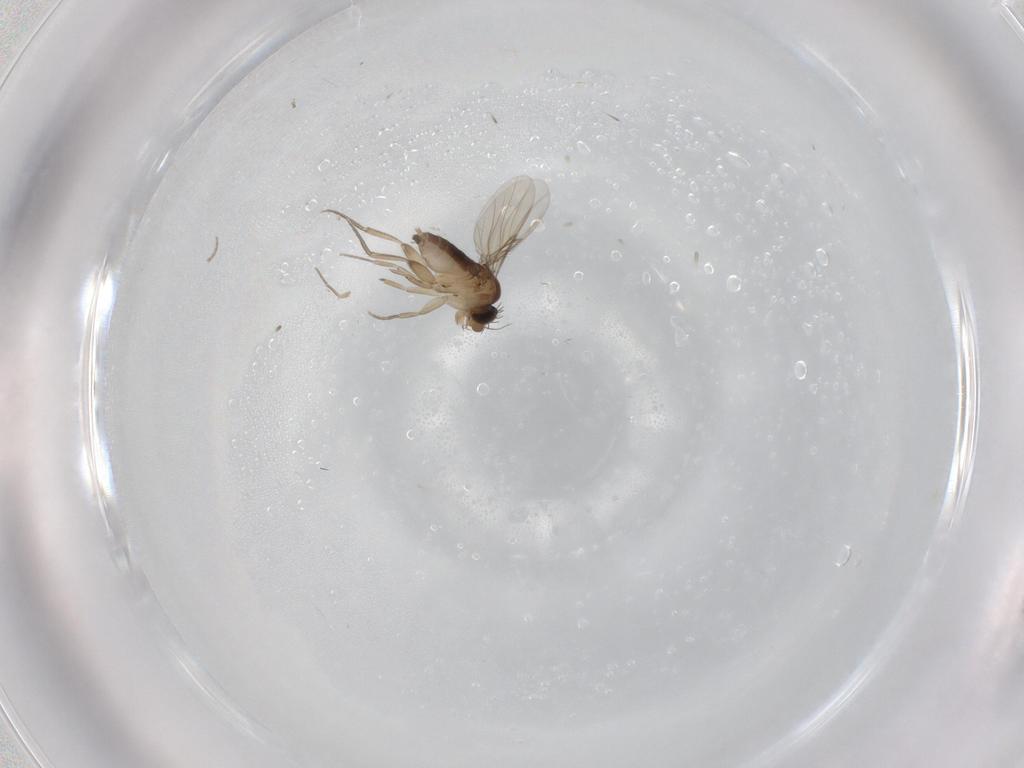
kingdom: Animalia
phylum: Arthropoda
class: Insecta
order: Diptera
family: Phoridae
